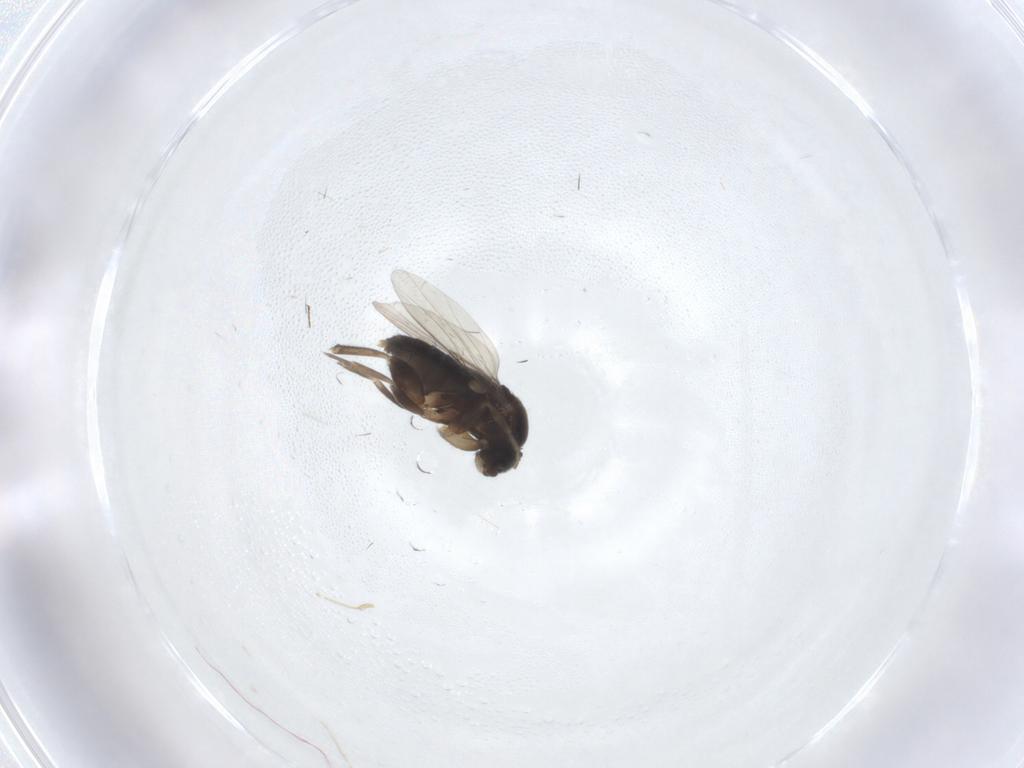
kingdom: Animalia
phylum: Arthropoda
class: Insecta
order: Diptera
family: Phoridae
